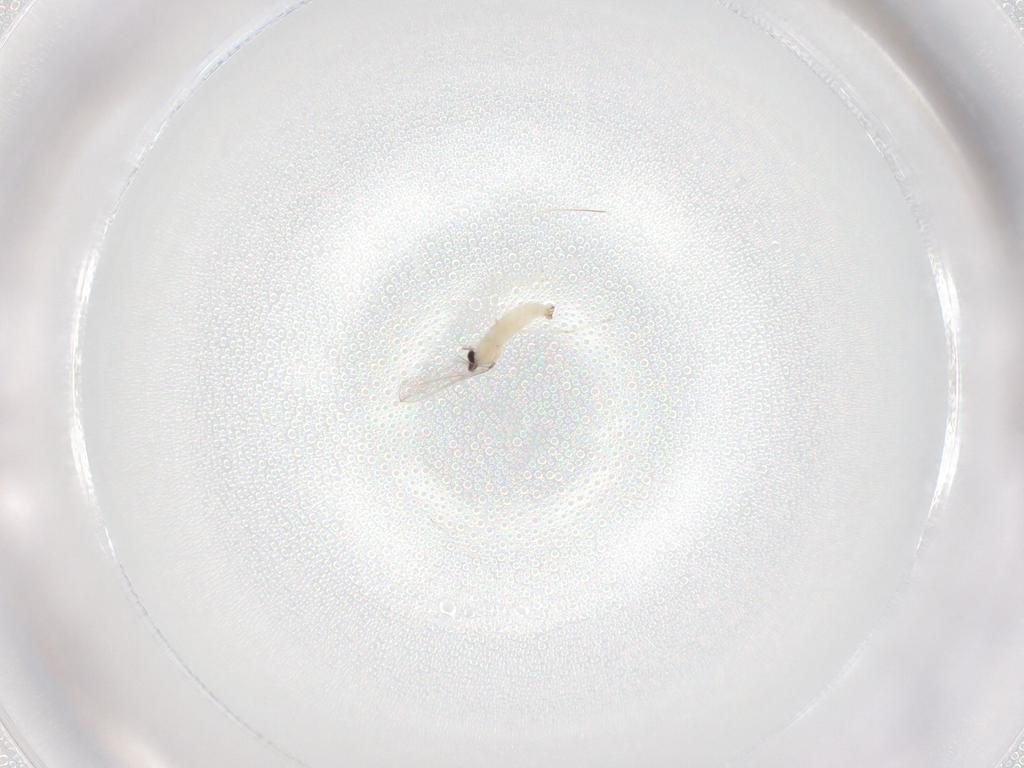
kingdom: Animalia
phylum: Arthropoda
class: Insecta
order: Diptera
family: Cecidomyiidae
